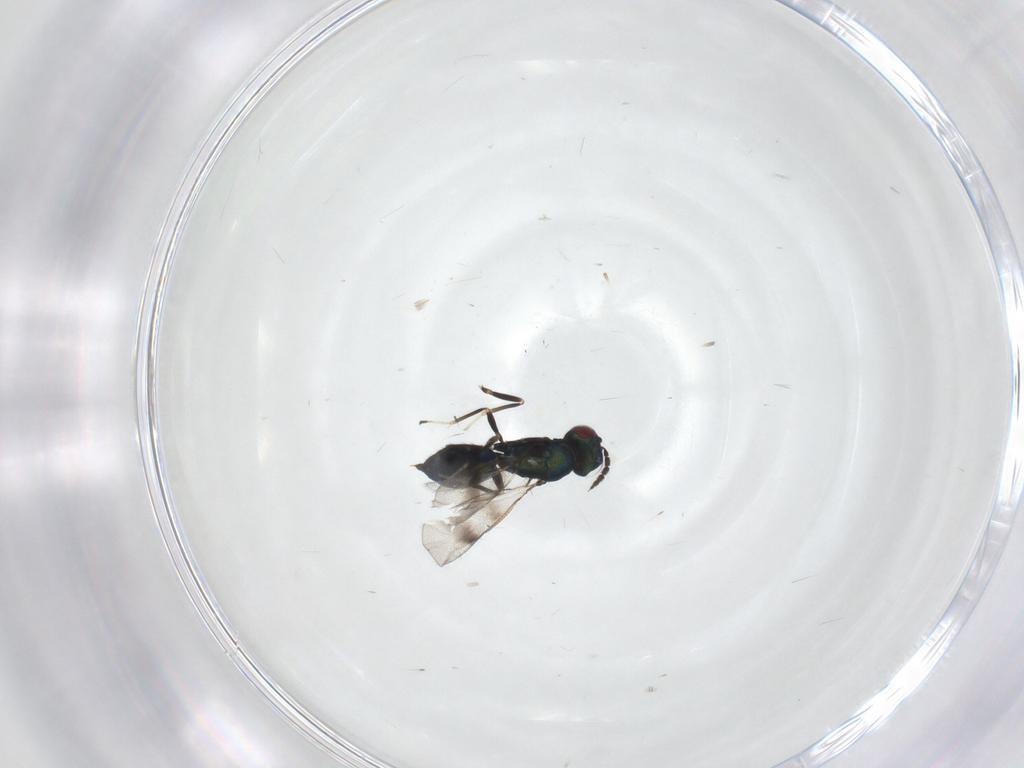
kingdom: Animalia
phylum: Arthropoda
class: Insecta
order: Hymenoptera
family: Eulophidae
